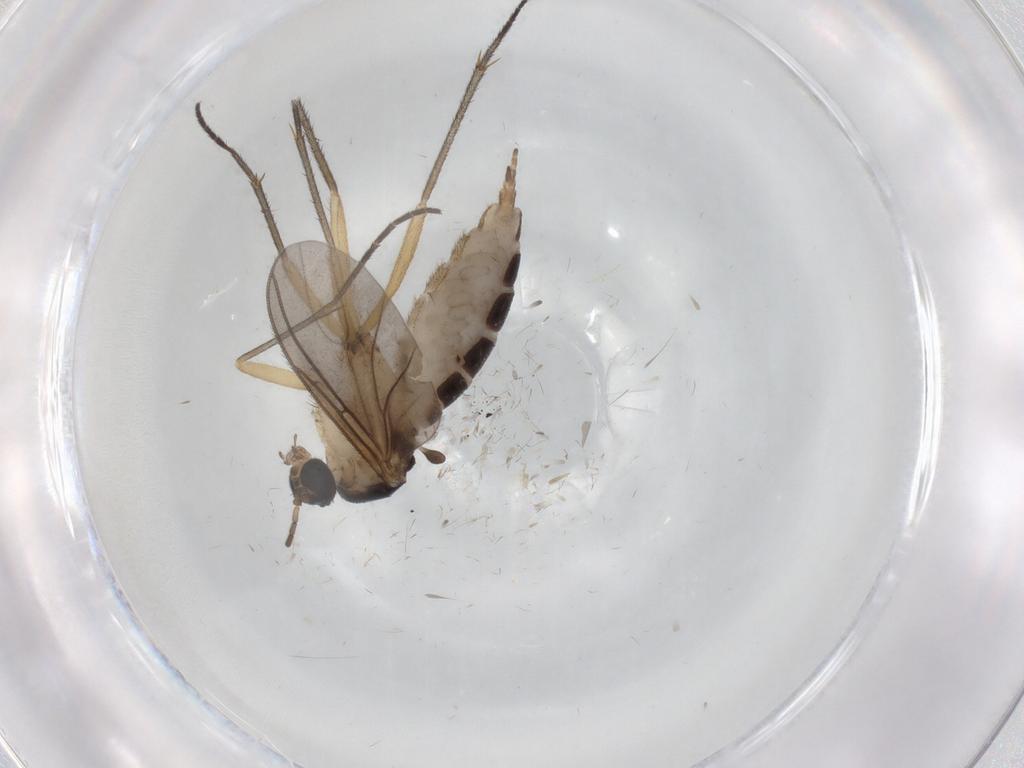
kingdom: Animalia
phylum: Arthropoda
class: Insecta
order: Diptera
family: Sciaridae
